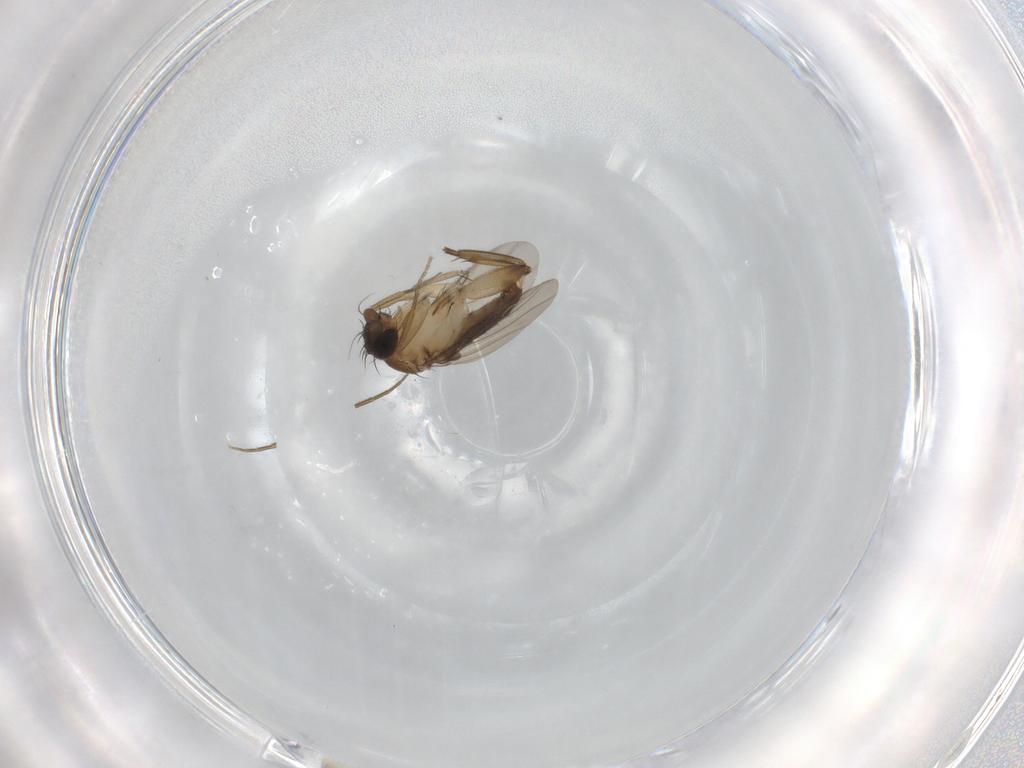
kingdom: Animalia
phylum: Arthropoda
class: Insecta
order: Diptera
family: Phoridae
